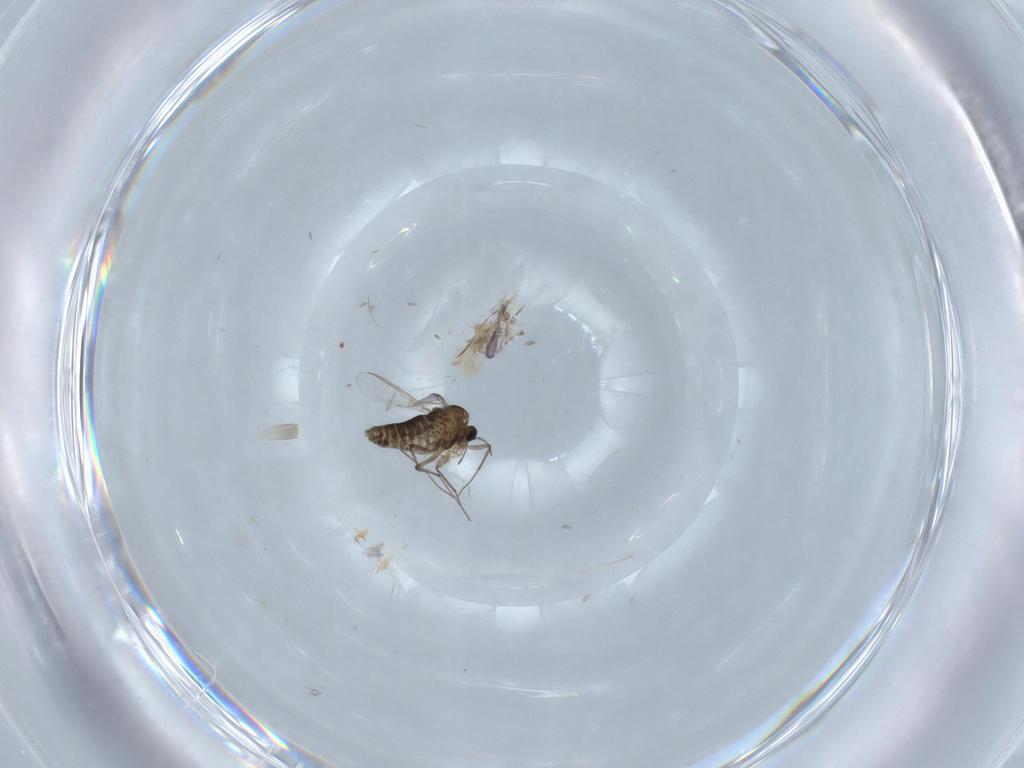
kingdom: Animalia
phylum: Arthropoda
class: Insecta
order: Diptera
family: Chironomidae
